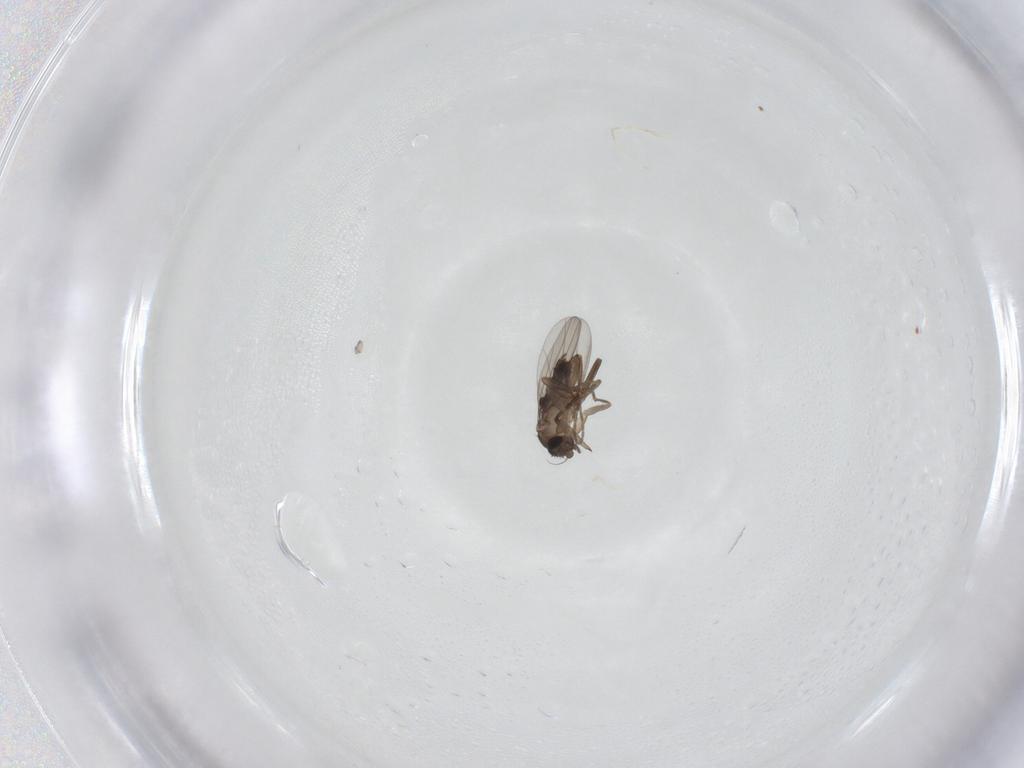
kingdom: Animalia
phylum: Arthropoda
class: Insecta
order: Diptera
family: Sciaridae
